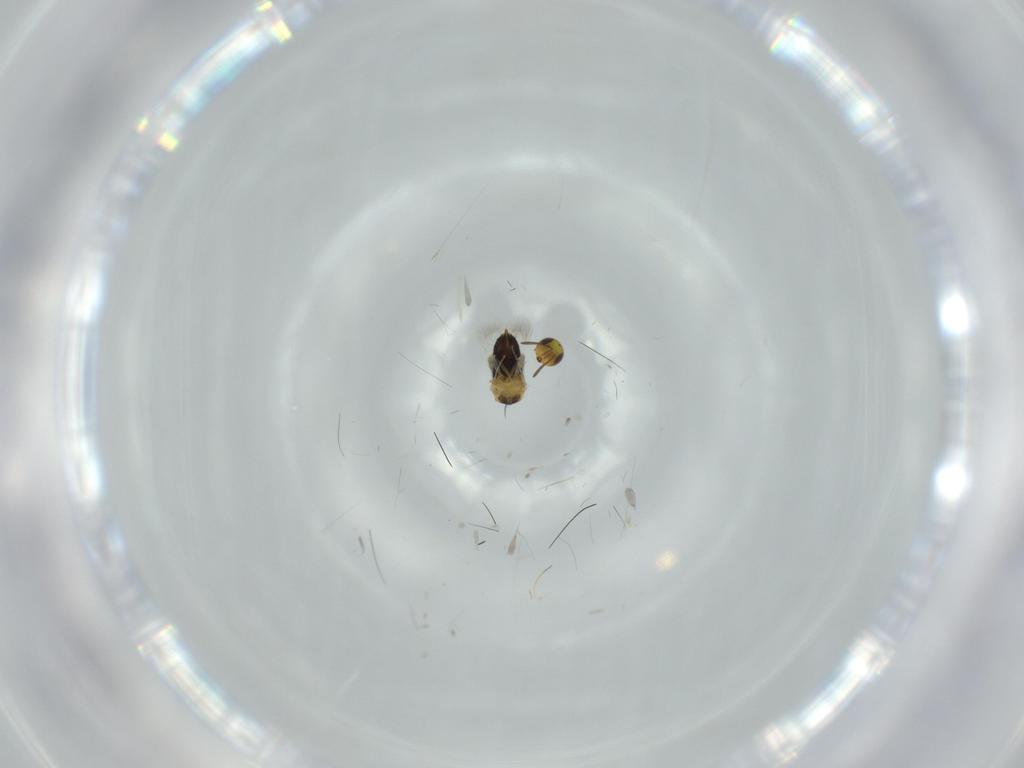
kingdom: Animalia
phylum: Arthropoda
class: Insecta
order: Hymenoptera
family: Signiphoridae
